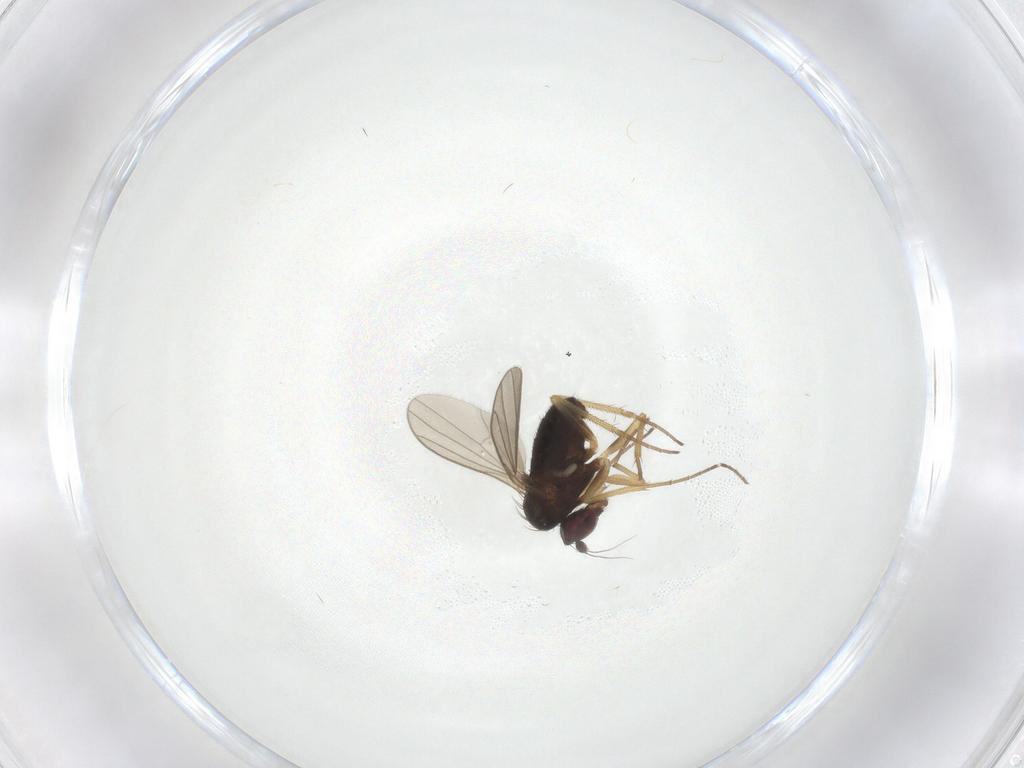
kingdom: Animalia
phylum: Arthropoda
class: Insecta
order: Diptera
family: Dolichopodidae
